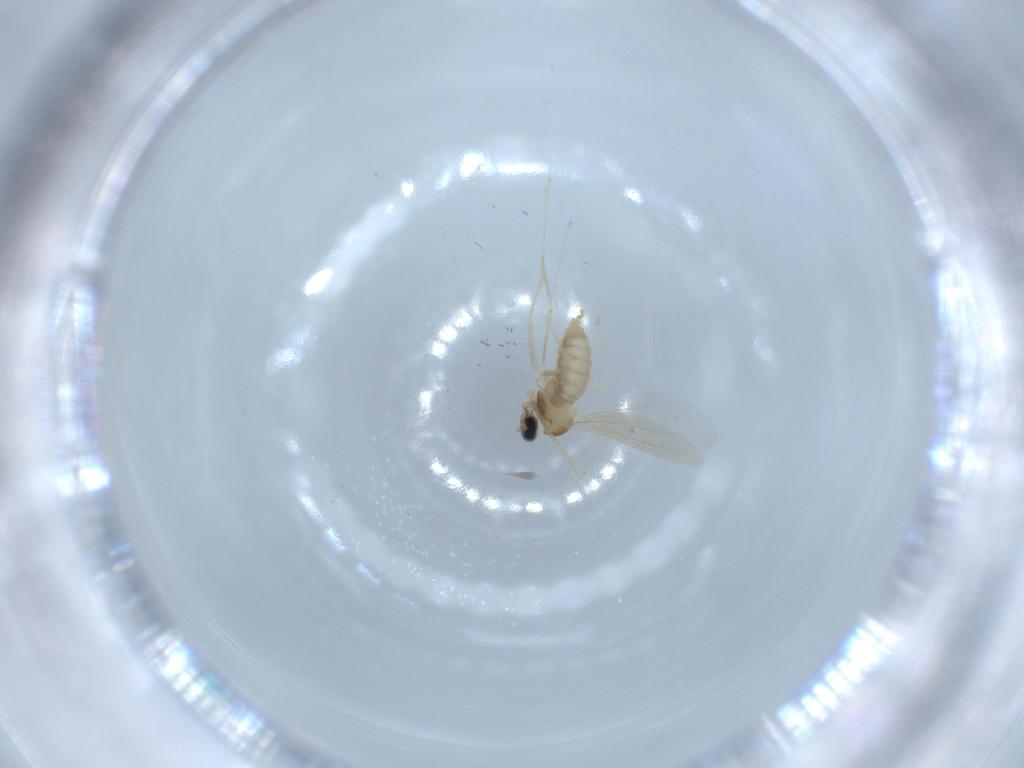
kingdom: Animalia
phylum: Arthropoda
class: Insecta
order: Diptera
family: Cecidomyiidae
